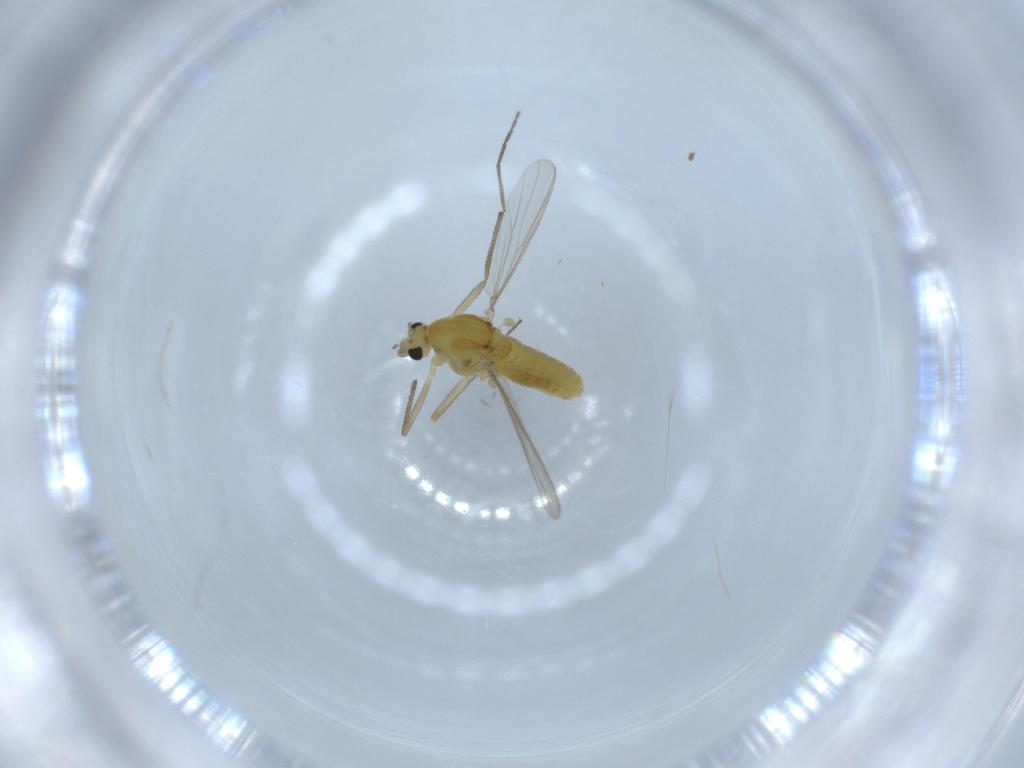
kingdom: Animalia
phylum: Arthropoda
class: Insecta
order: Diptera
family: Chironomidae
